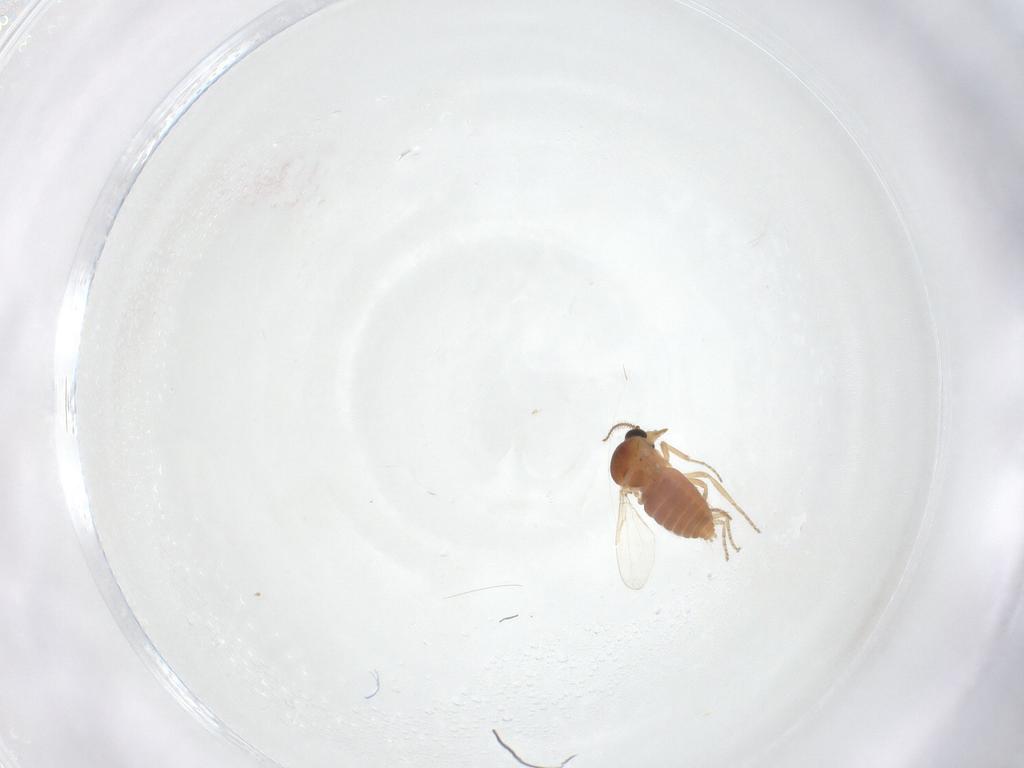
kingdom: Animalia
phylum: Arthropoda
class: Insecta
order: Diptera
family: Ceratopogonidae
